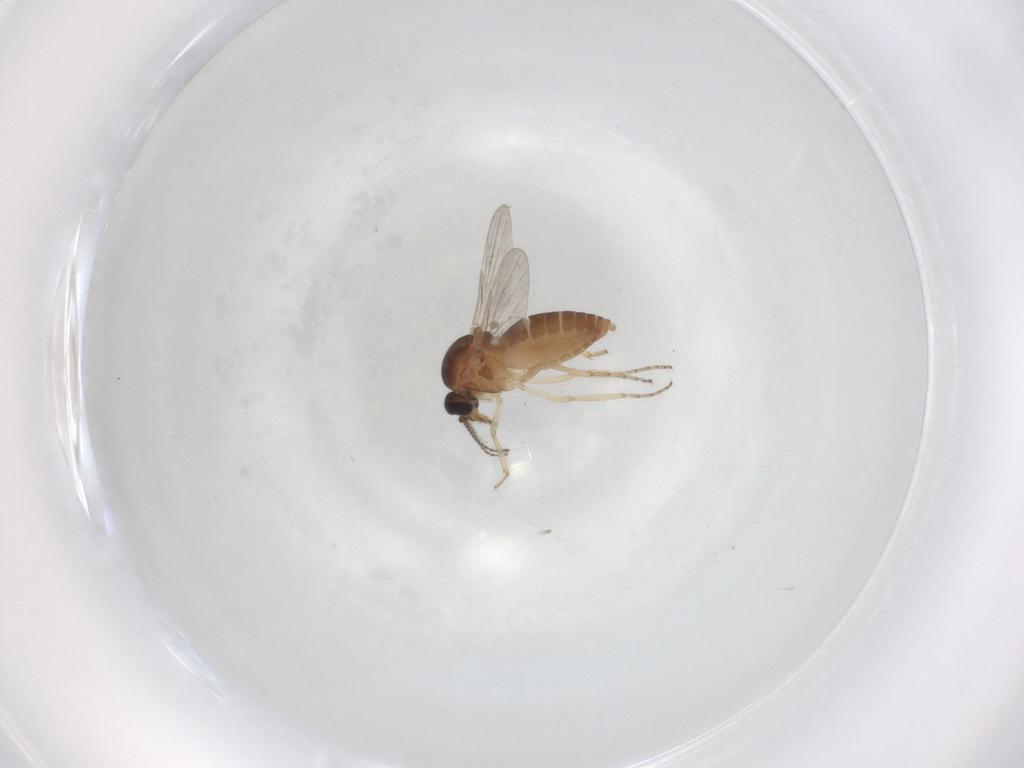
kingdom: Animalia
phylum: Arthropoda
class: Insecta
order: Diptera
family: Ceratopogonidae
